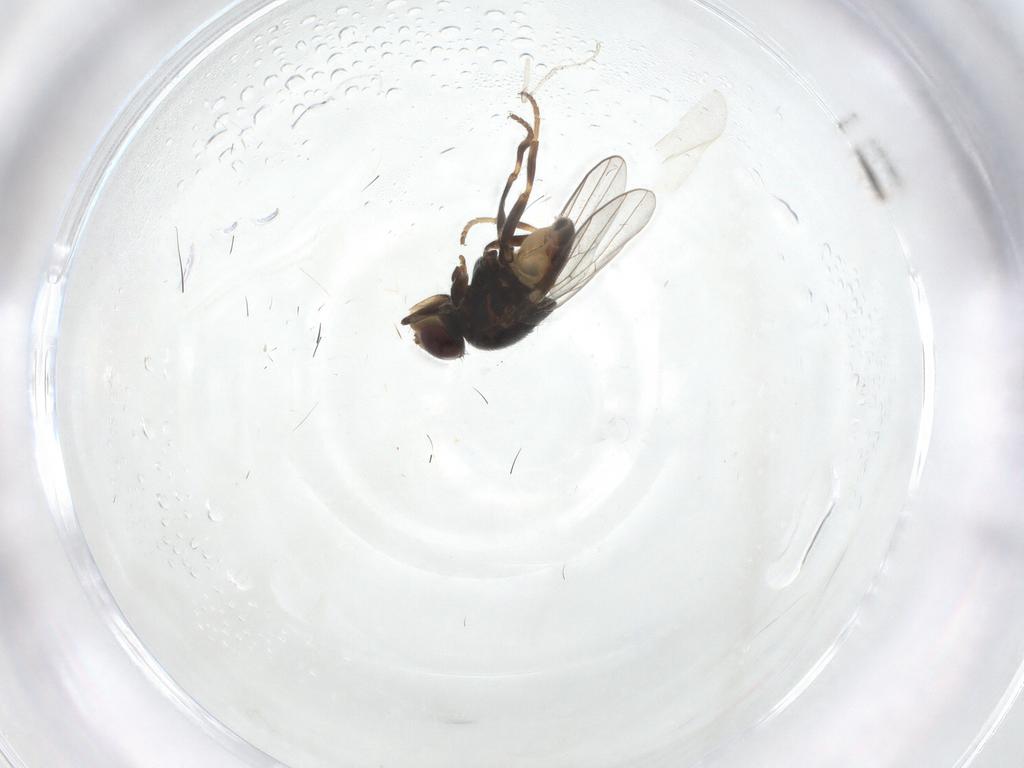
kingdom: Animalia
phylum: Arthropoda
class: Insecta
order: Diptera
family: Chloropidae
